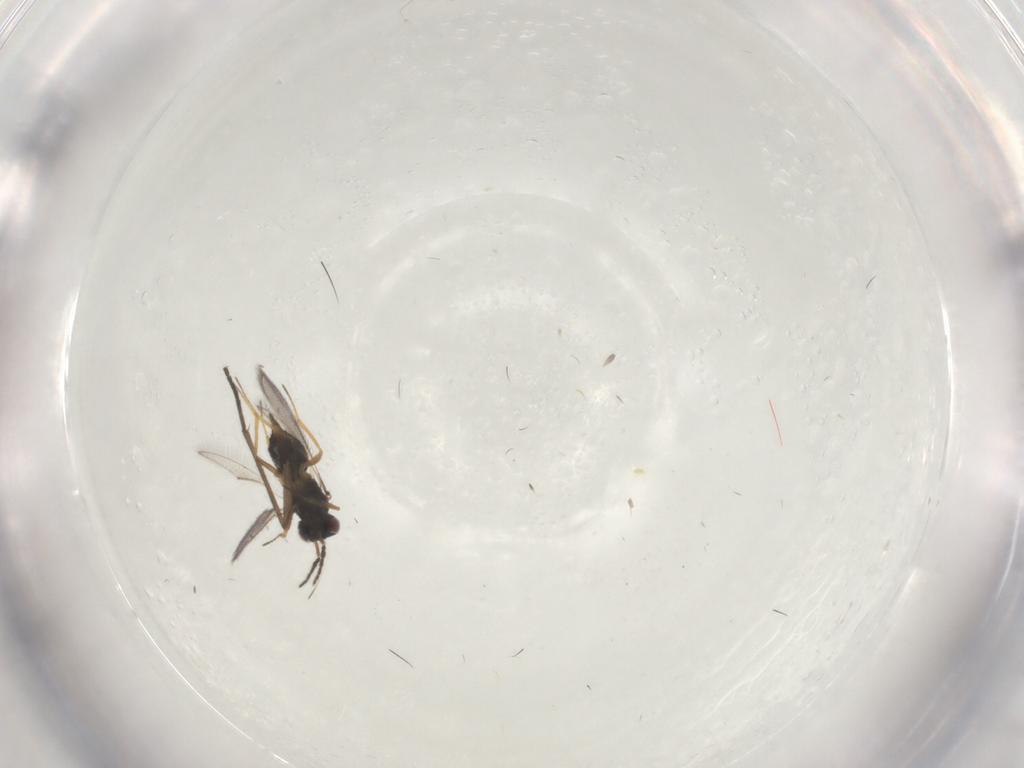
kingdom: Animalia
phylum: Arthropoda
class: Insecta
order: Hymenoptera
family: Eulophidae
